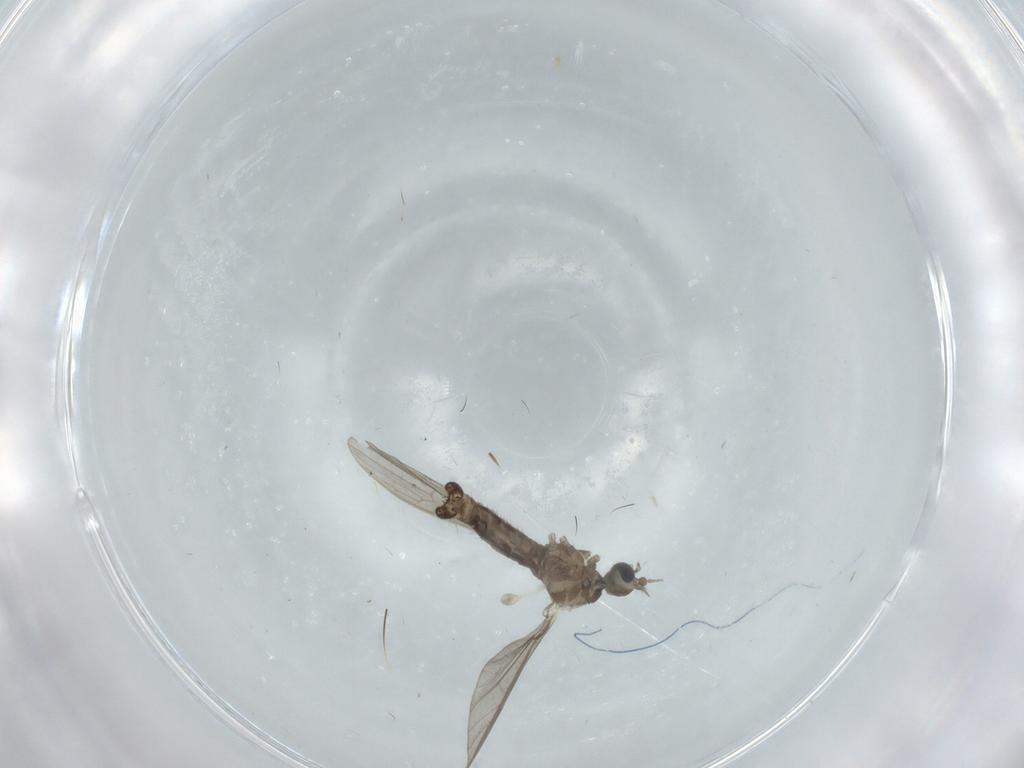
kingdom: Animalia
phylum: Arthropoda
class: Insecta
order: Diptera
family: Limoniidae
